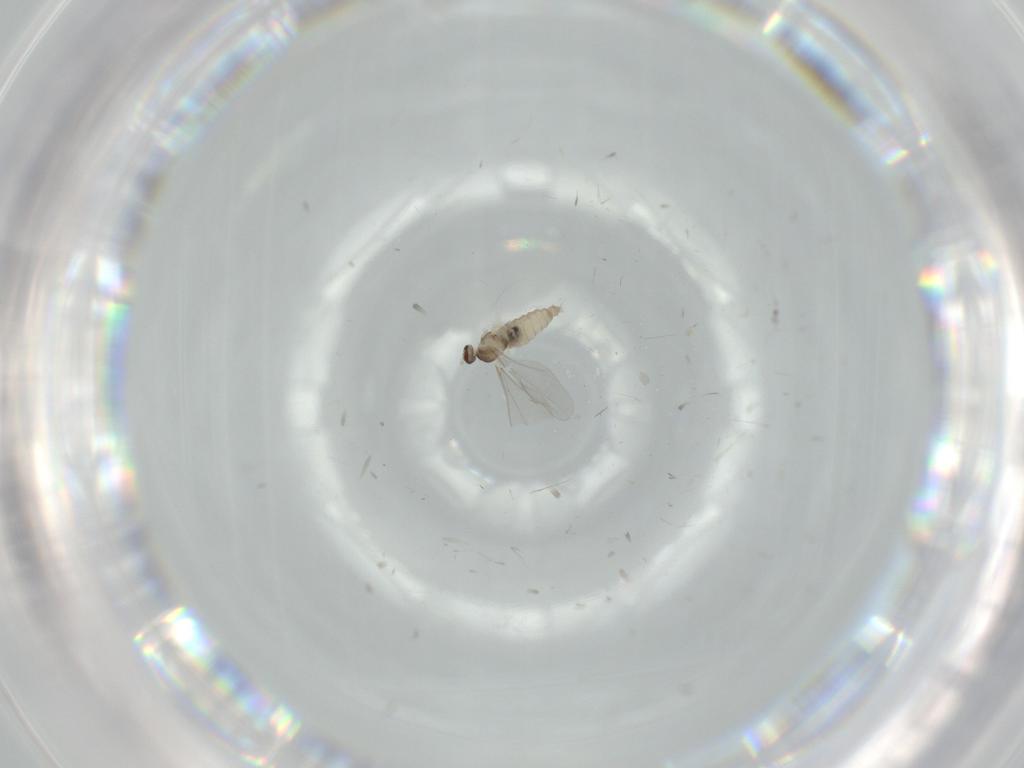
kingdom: Animalia
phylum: Arthropoda
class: Insecta
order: Diptera
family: Cecidomyiidae
